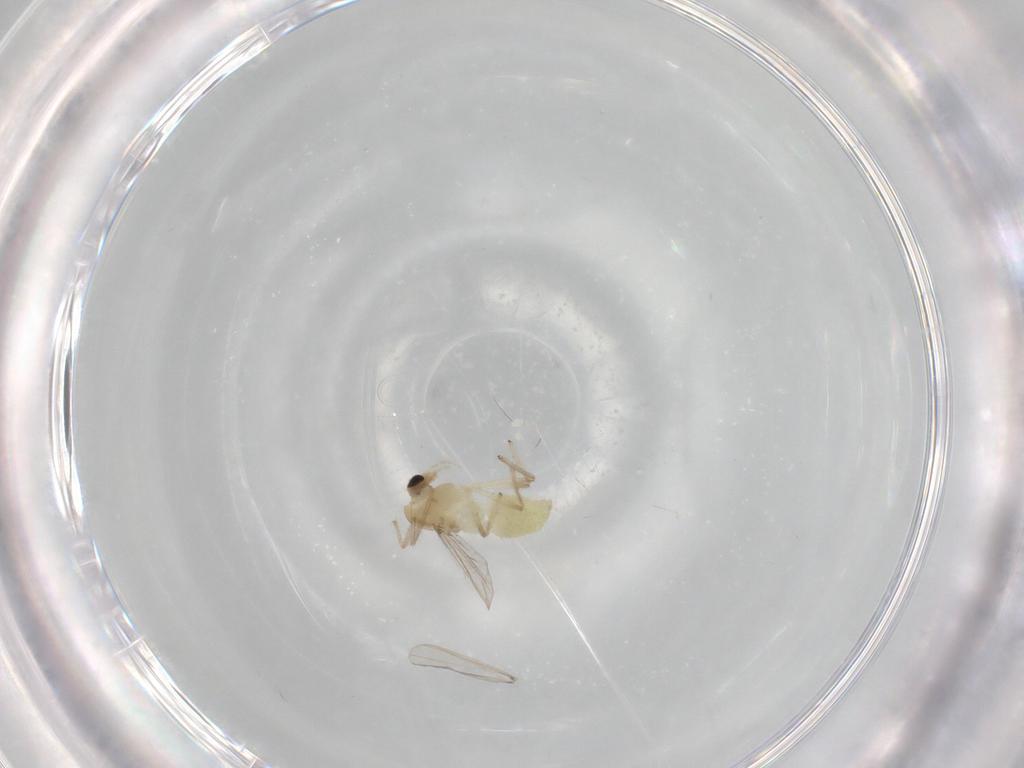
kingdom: Animalia
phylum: Arthropoda
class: Insecta
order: Diptera
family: Chironomidae
